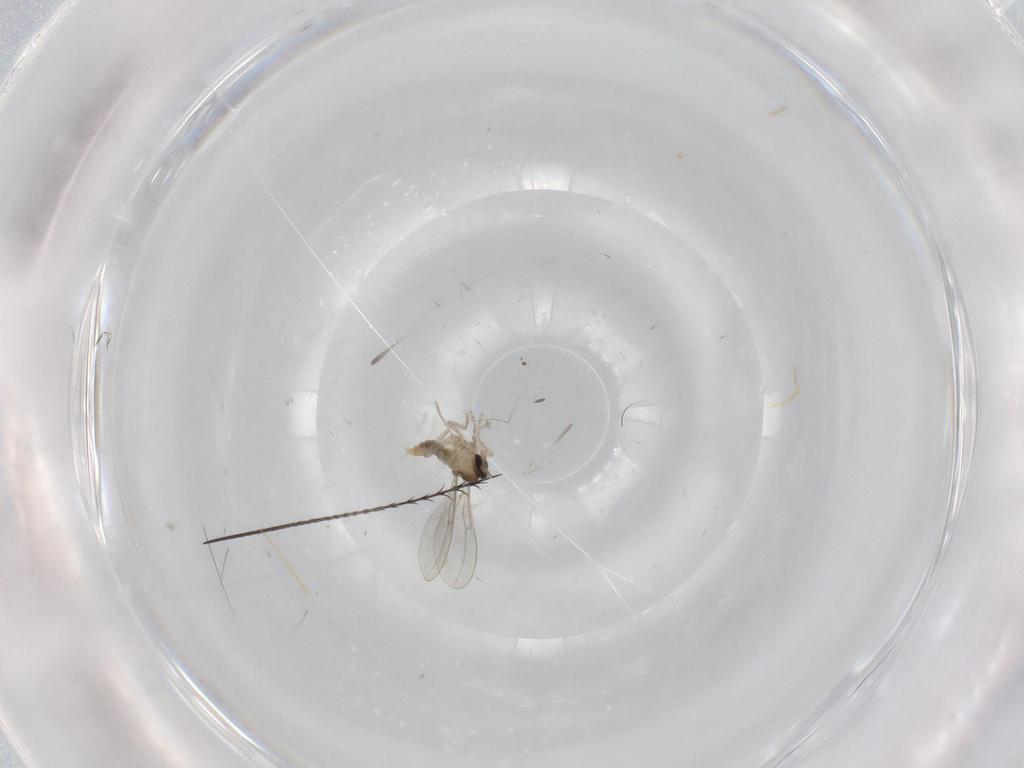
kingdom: Animalia
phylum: Arthropoda
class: Insecta
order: Diptera
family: Cecidomyiidae
